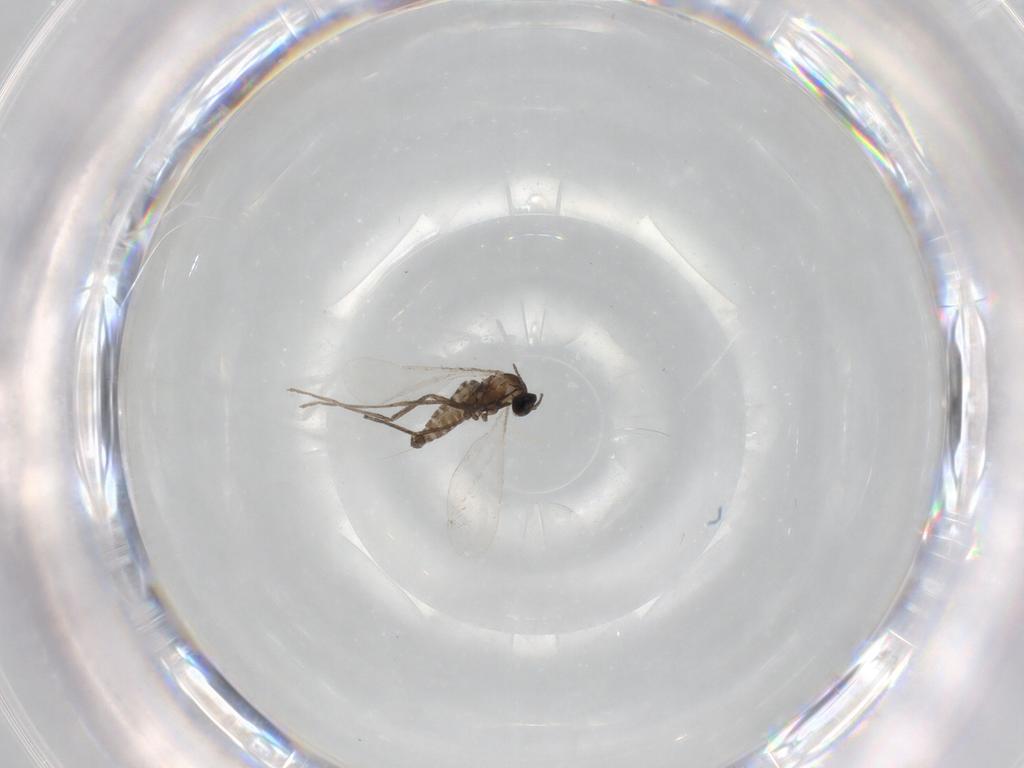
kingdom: Animalia
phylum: Arthropoda
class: Insecta
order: Diptera
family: Cecidomyiidae
